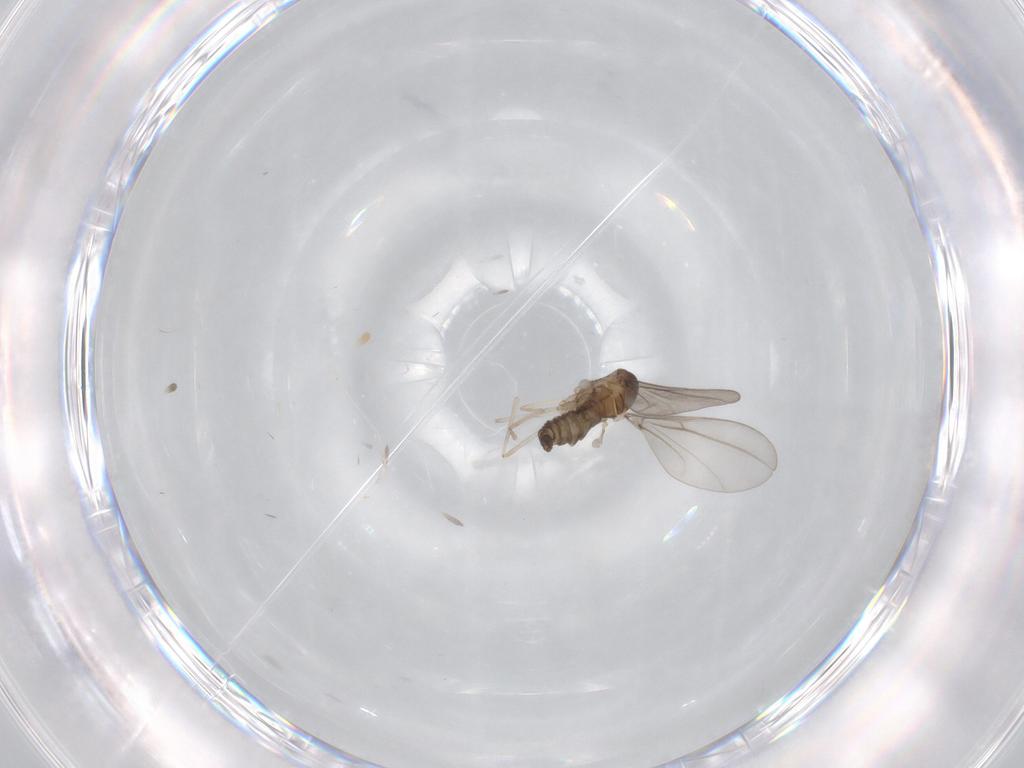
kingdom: Animalia
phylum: Arthropoda
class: Insecta
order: Diptera
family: Cecidomyiidae
